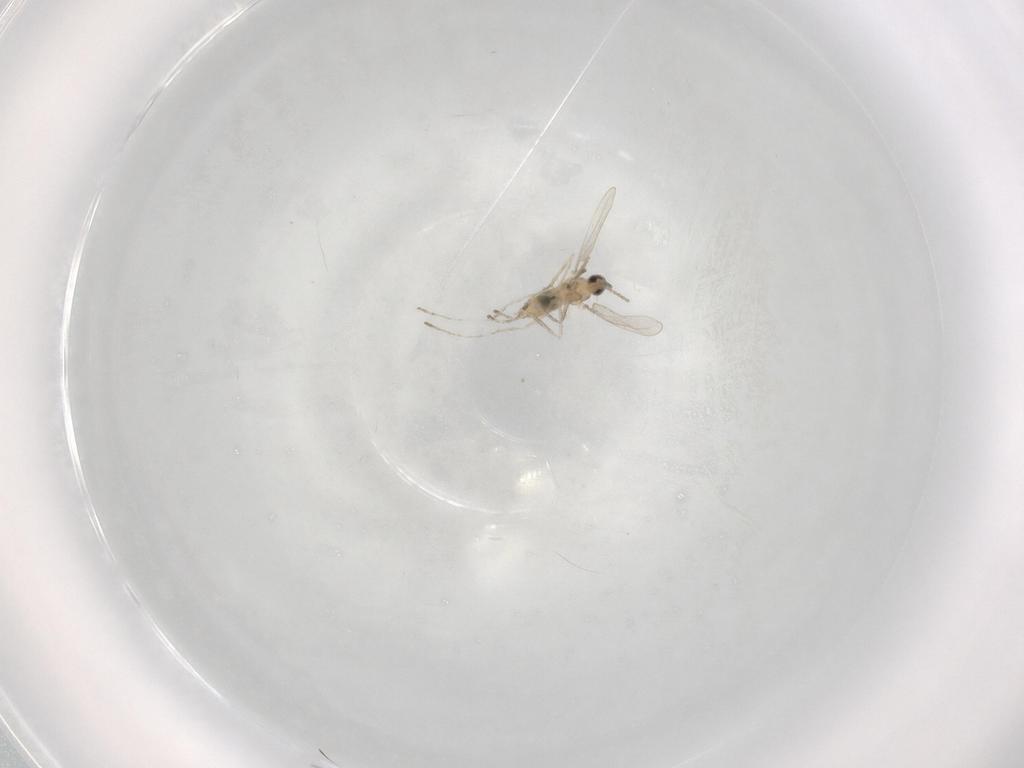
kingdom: Animalia
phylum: Arthropoda
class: Insecta
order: Diptera
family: Cecidomyiidae
